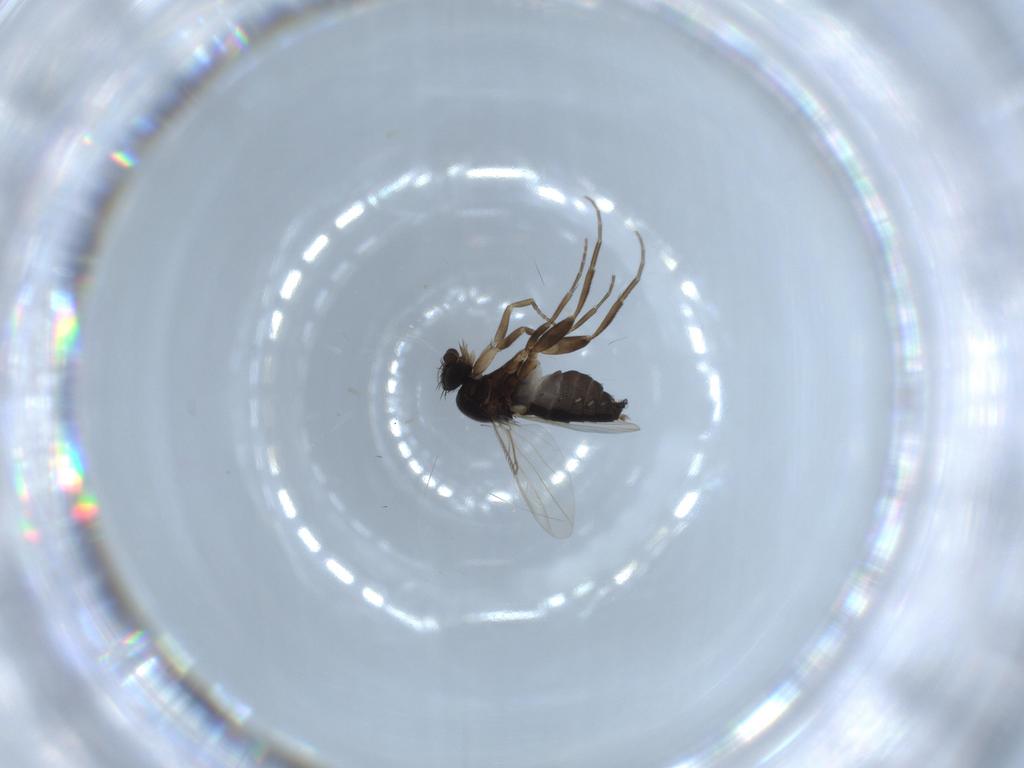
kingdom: Animalia
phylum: Arthropoda
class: Insecta
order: Diptera
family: Phoridae
